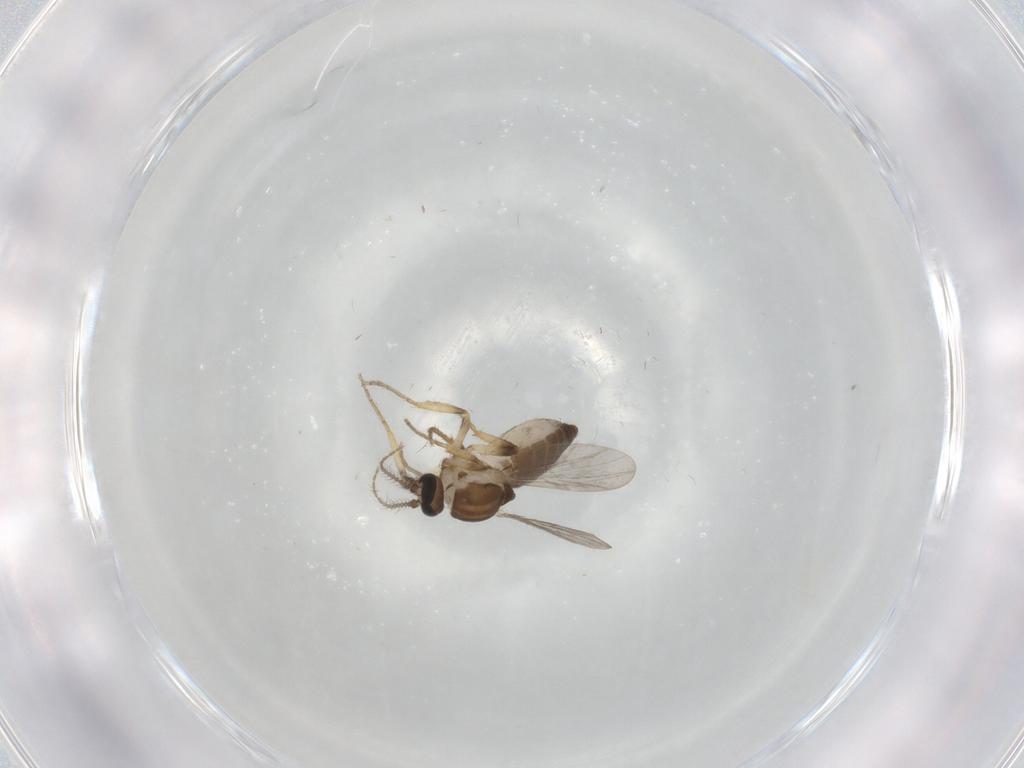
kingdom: Animalia
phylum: Arthropoda
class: Insecta
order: Diptera
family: Ceratopogonidae
